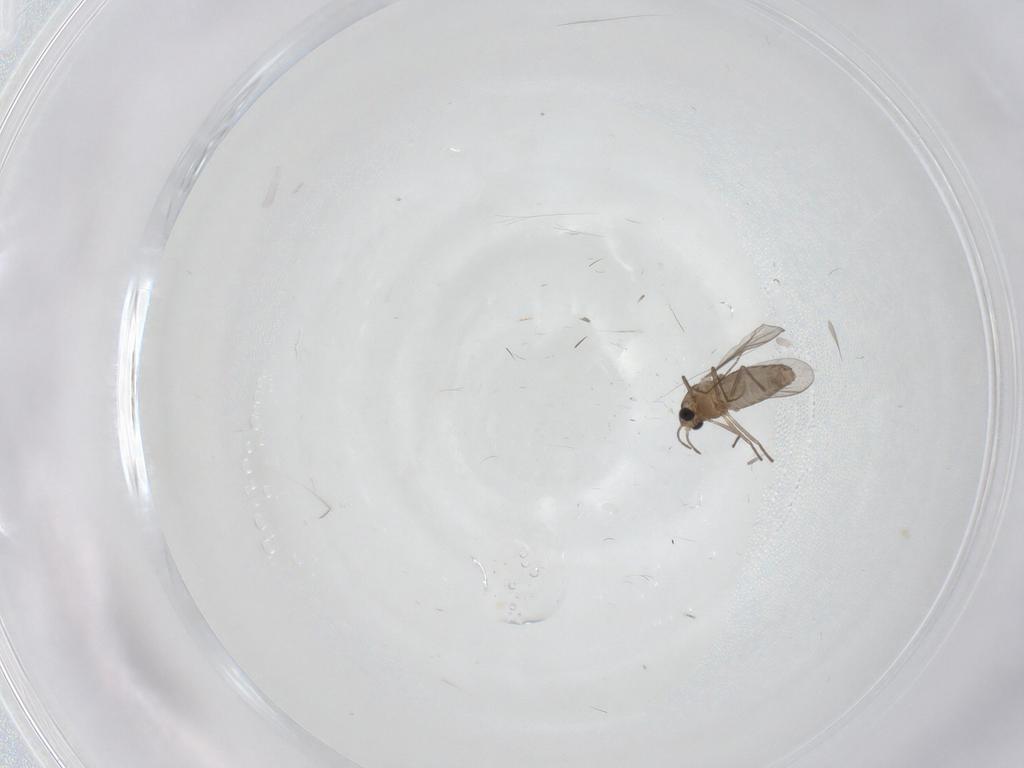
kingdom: Animalia
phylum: Arthropoda
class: Insecta
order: Diptera
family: Chironomidae
